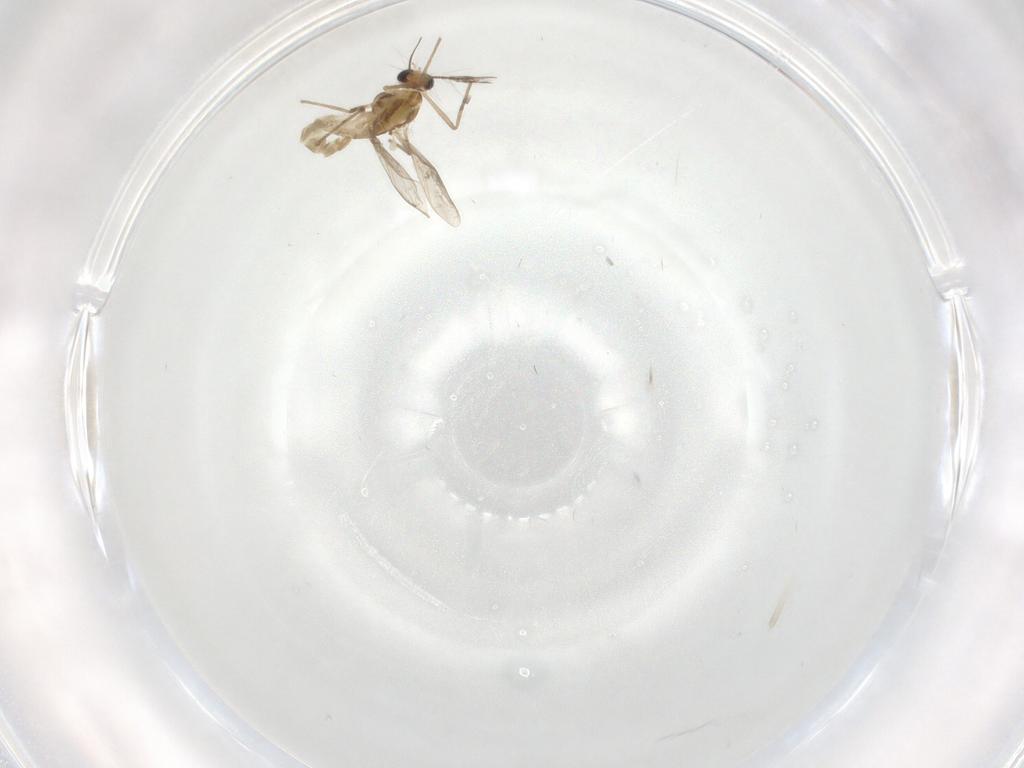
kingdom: Animalia
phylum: Arthropoda
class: Insecta
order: Diptera
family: Chironomidae
